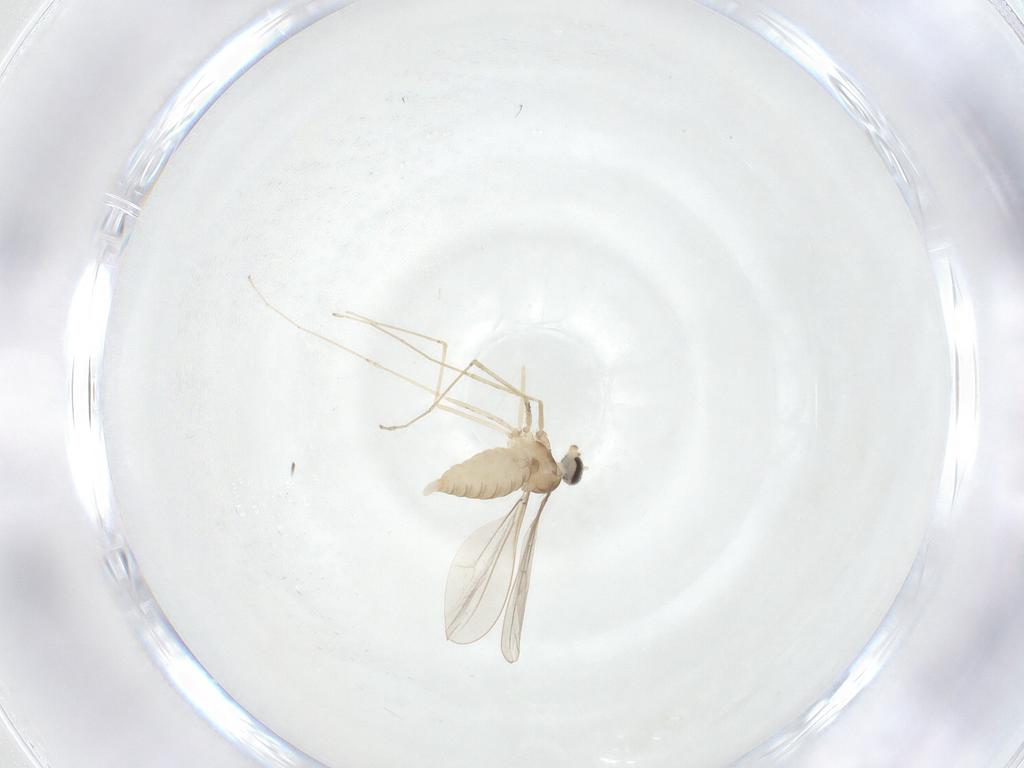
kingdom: Animalia
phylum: Arthropoda
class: Insecta
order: Diptera
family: Cecidomyiidae
